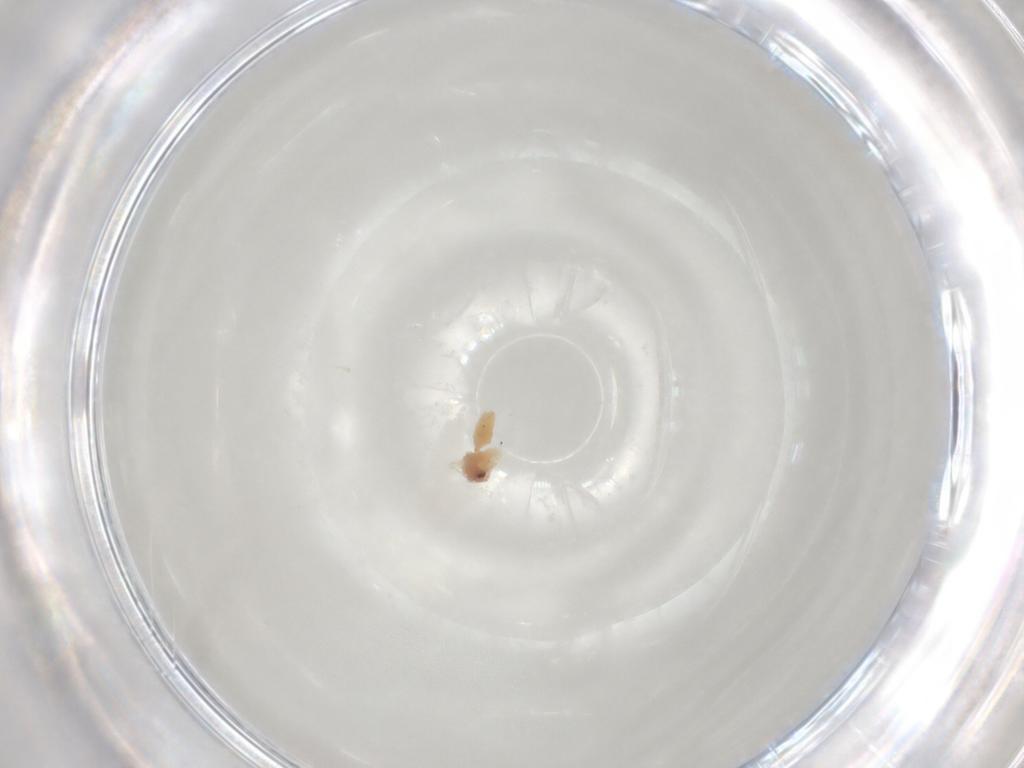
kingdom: Animalia
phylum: Arthropoda
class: Insecta
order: Hemiptera
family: Aleyrodidae
